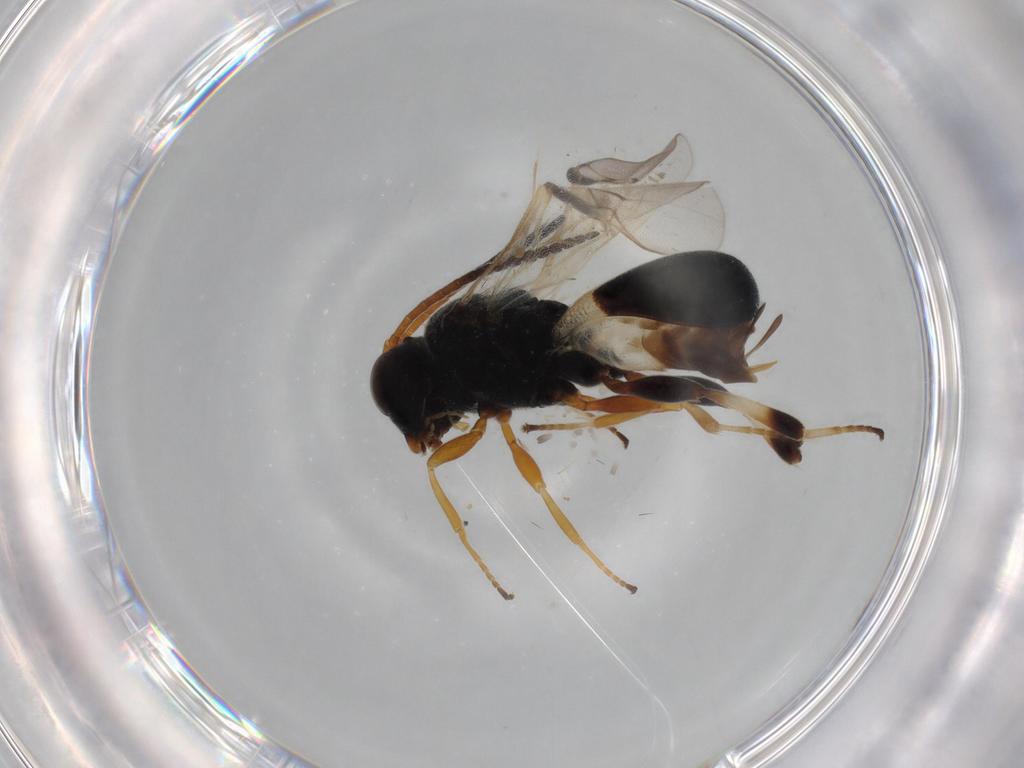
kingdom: Animalia
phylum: Arthropoda
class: Insecta
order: Hymenoptera
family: Braconidae
